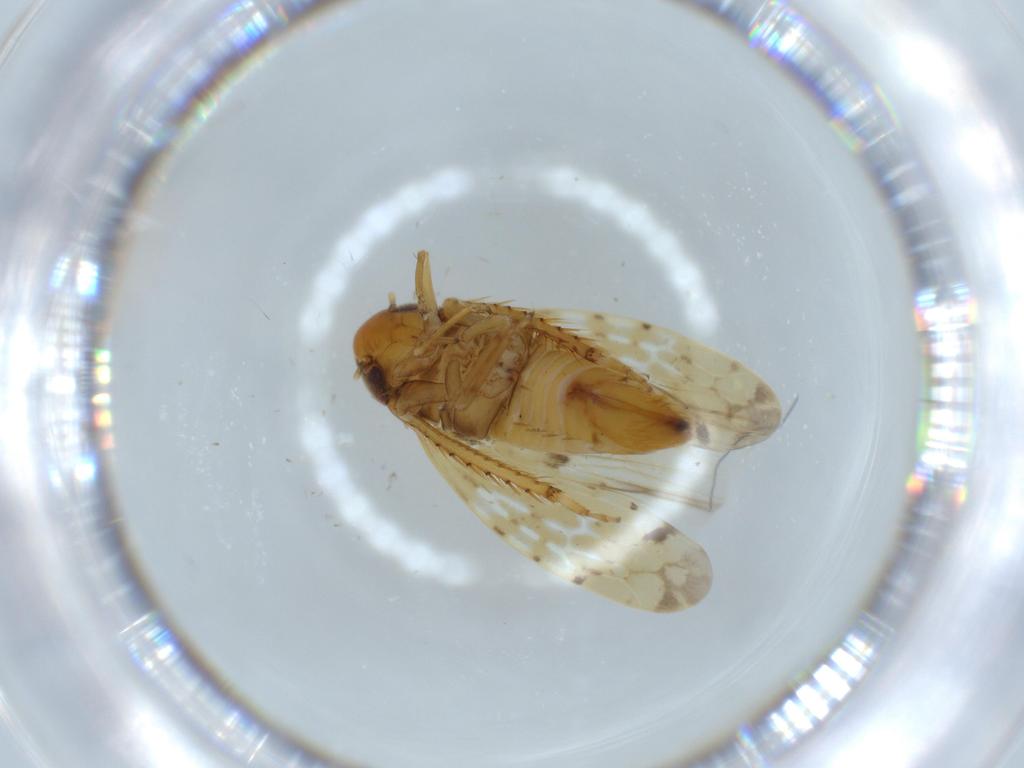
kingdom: Animalia
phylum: Arthropoda
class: Insecta
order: Hemiptera
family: Cicadellidae
